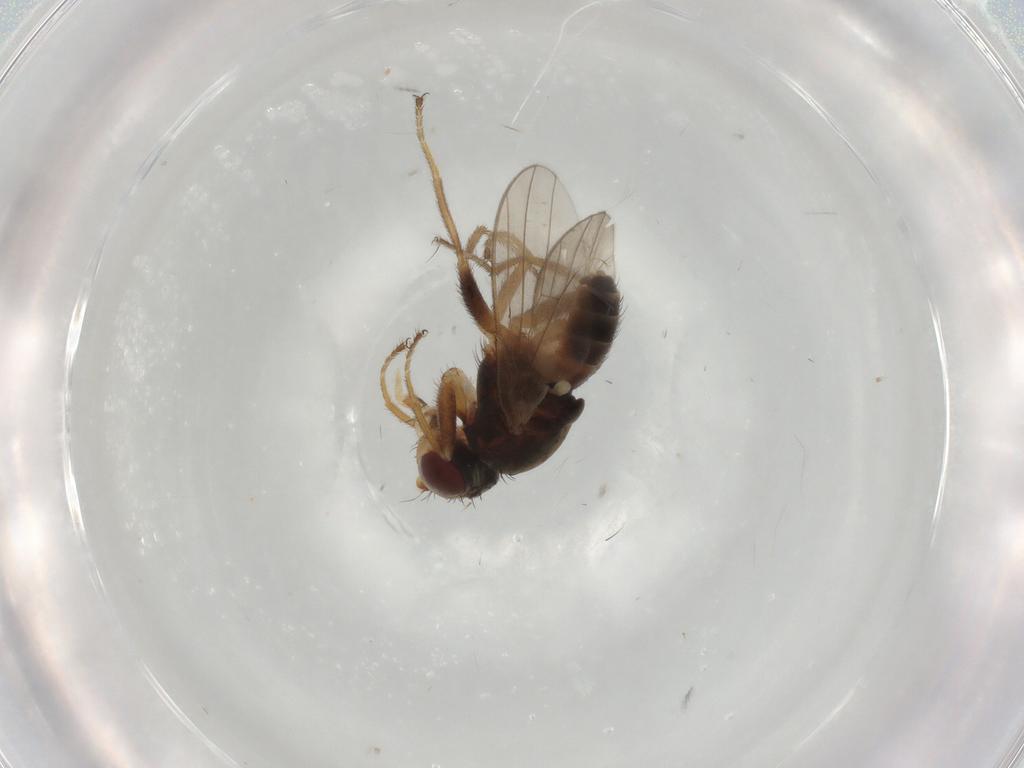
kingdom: Animalia
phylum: Arthropoda
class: Insecta
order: Diptera
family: Canacidae
